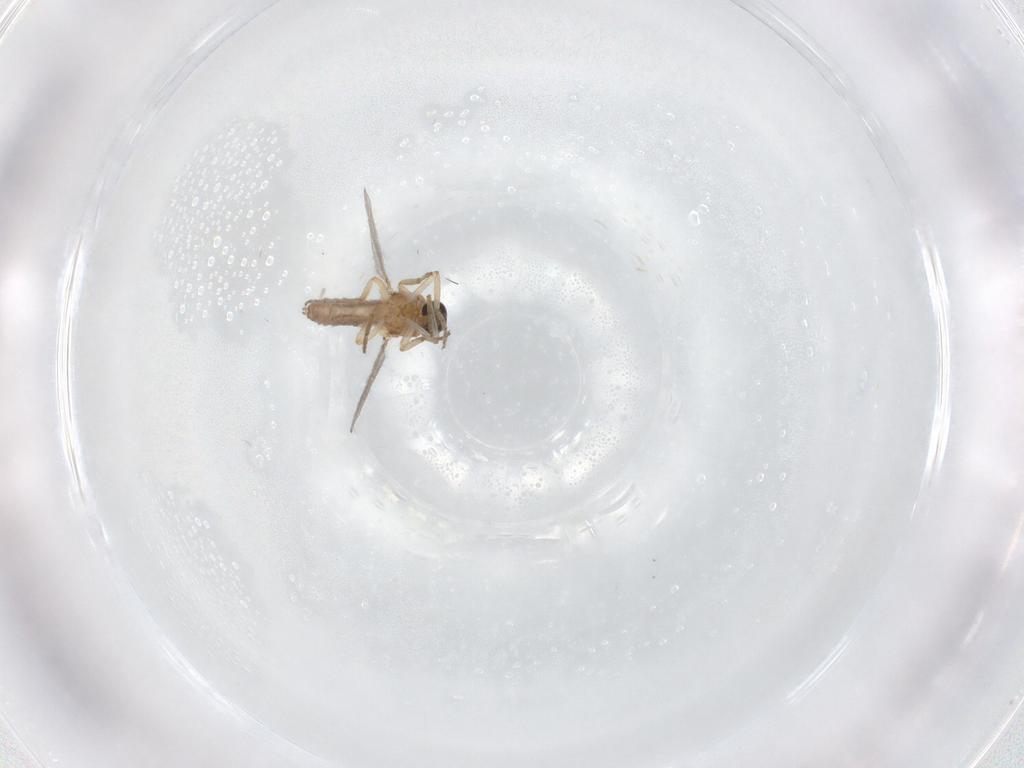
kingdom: Animalia
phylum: Arthropoda
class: Insecta
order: Diptera
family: Ceratopogonidae
